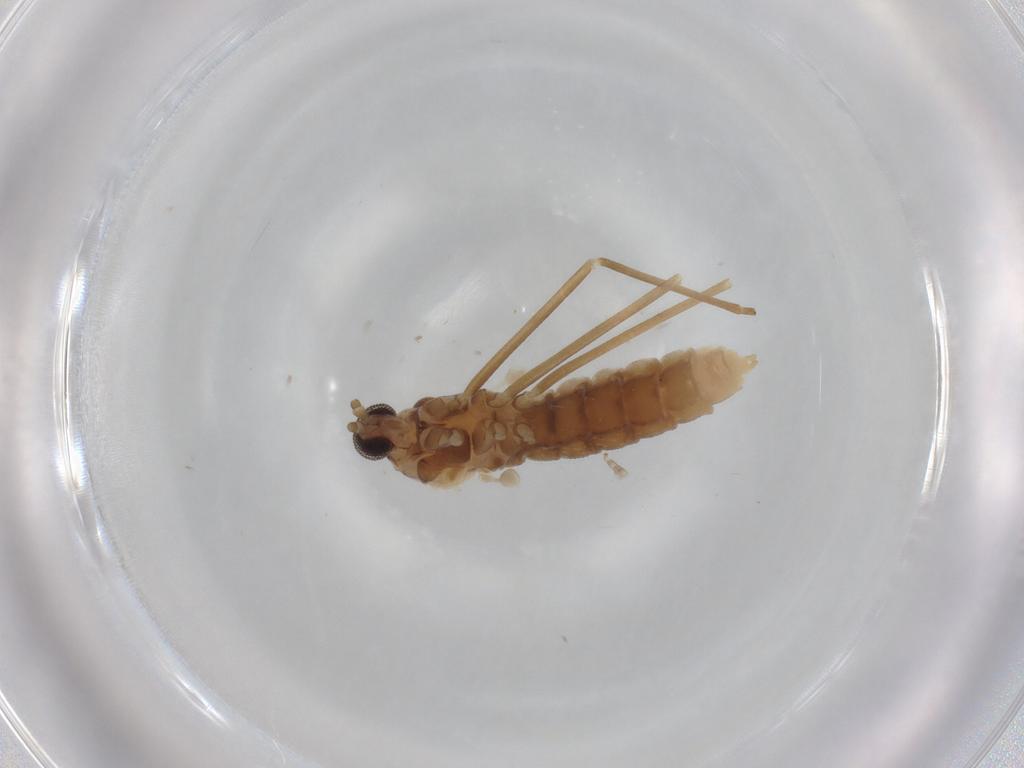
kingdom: Animalia
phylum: Arthropoda
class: Insecta
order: Diptera
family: Cecidomyiidae
